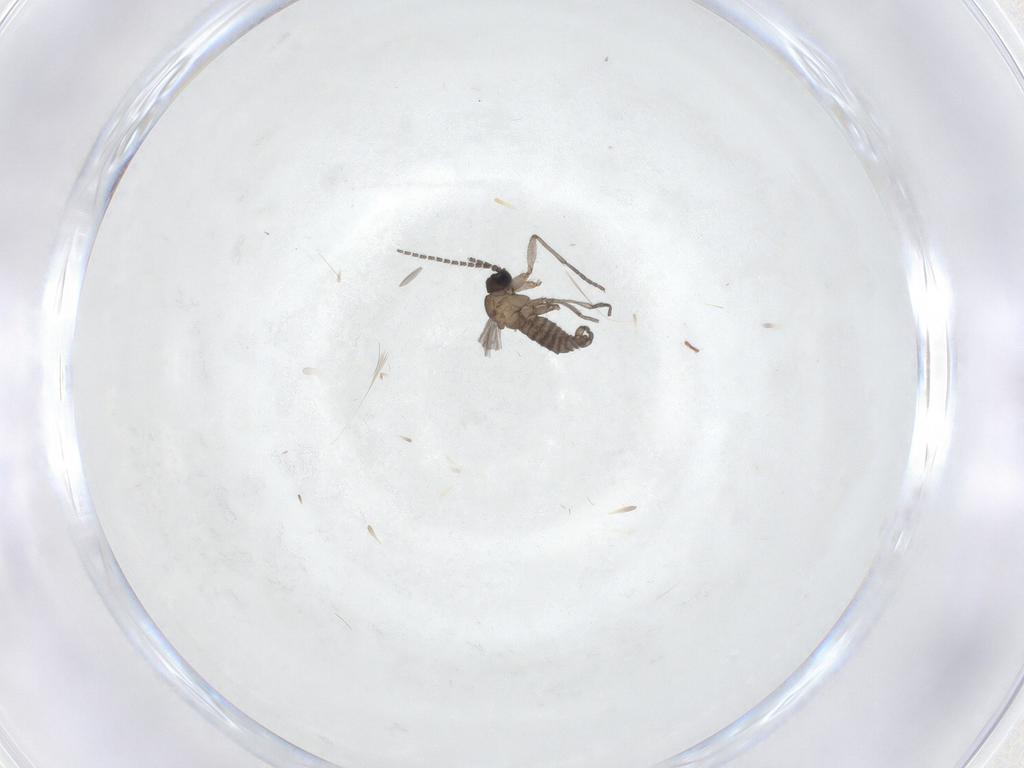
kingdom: Animalia
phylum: Arthropoda
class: Insecta
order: Diptera
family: Sciaridae
